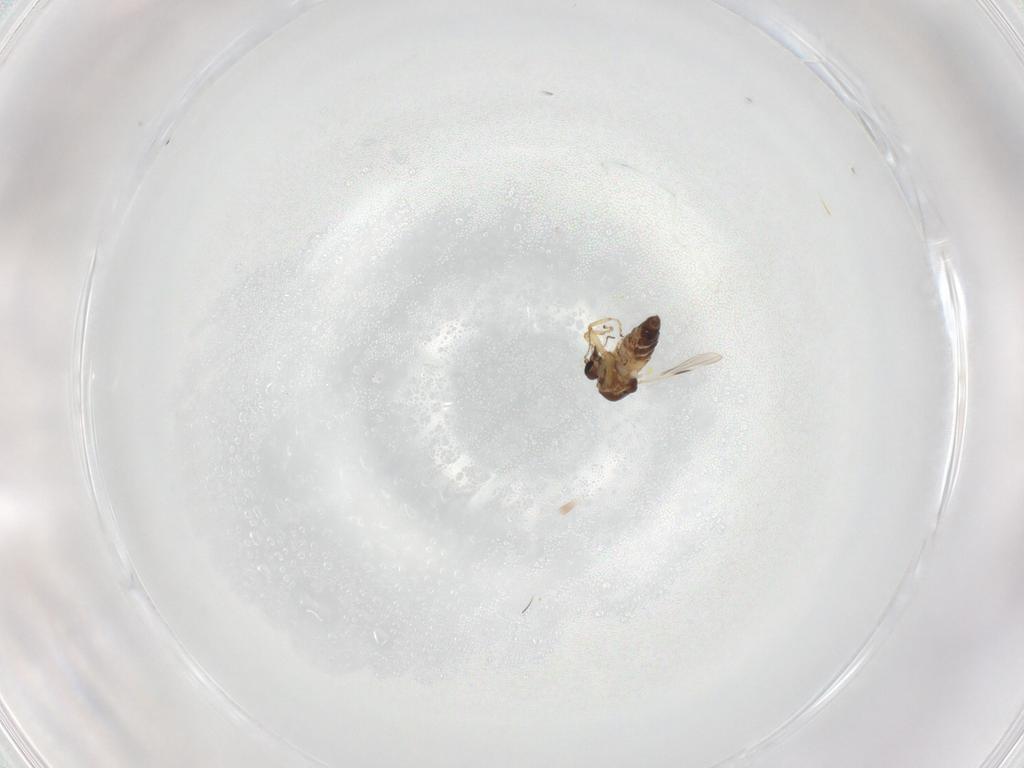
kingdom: Animalia
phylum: Arthropoda
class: Insecta
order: Diptera
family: Ceratopogonidae
